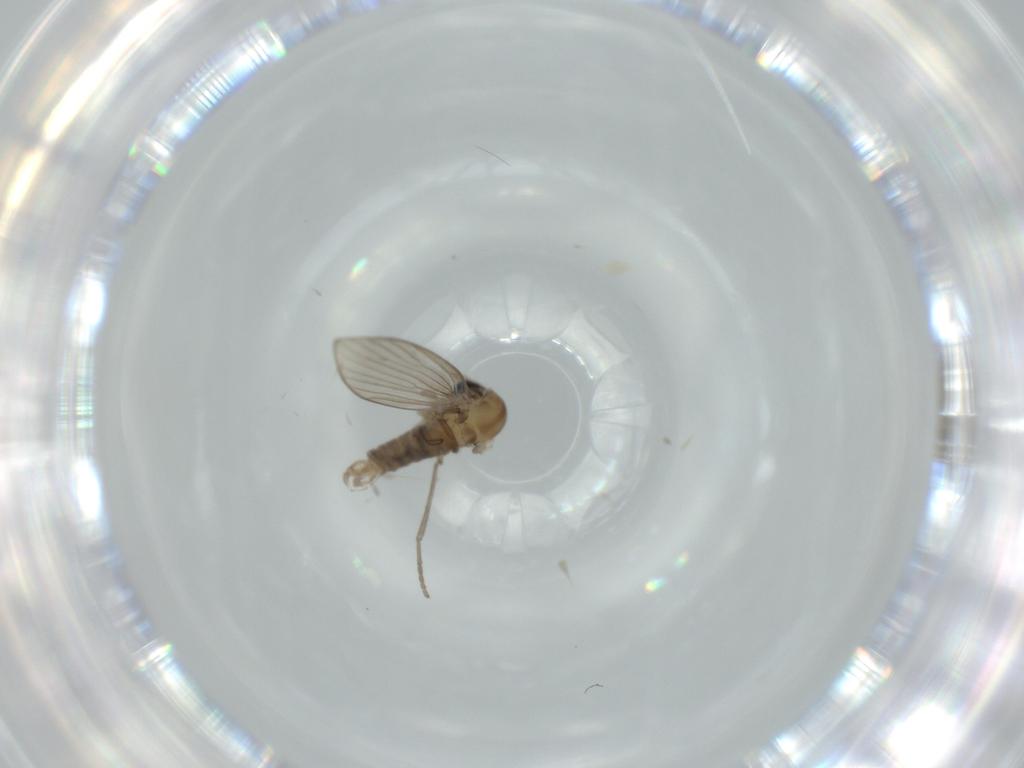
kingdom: Animalia
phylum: Arthropoda
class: Insecta
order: Diptera
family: Psychodidae
